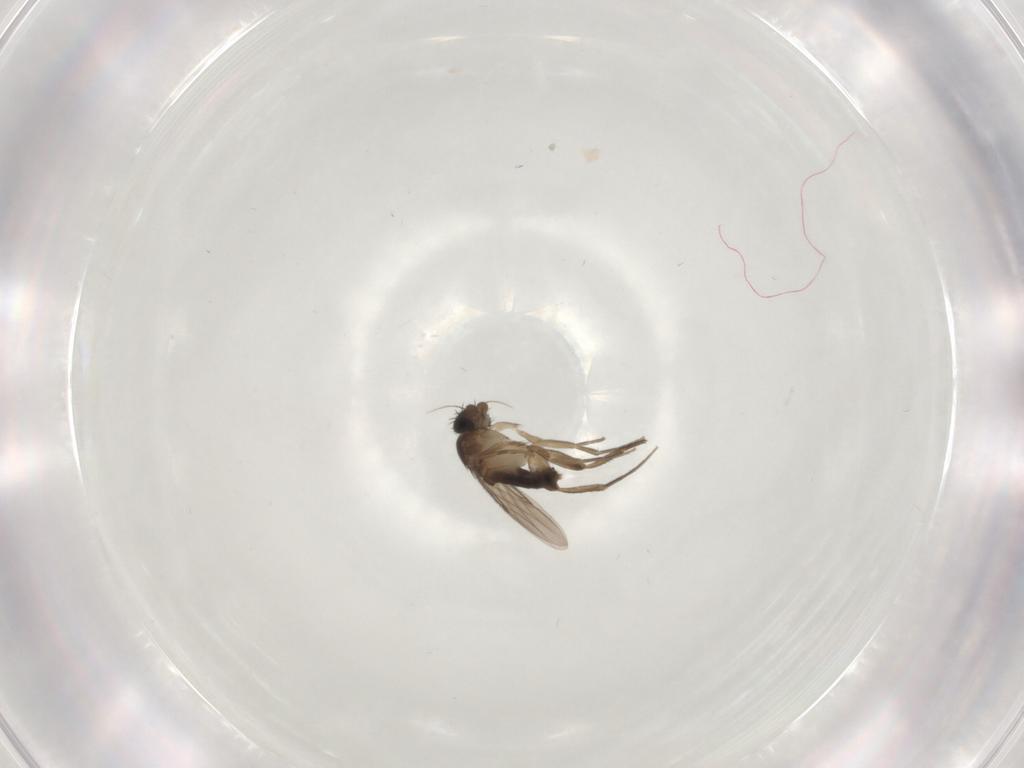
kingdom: Animalia
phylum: Arthropoda
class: Insecta
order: Diptera
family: Phoridae
